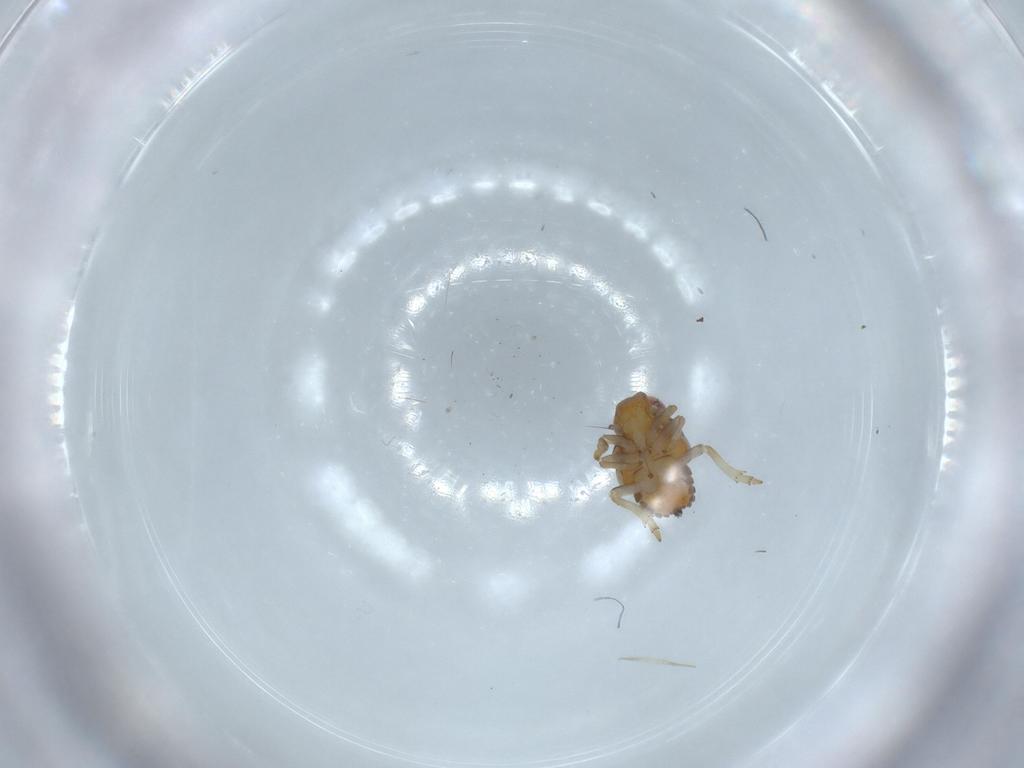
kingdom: Animalia
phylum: Arthropoda
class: Insecta
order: Hemiptera
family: Issidae
